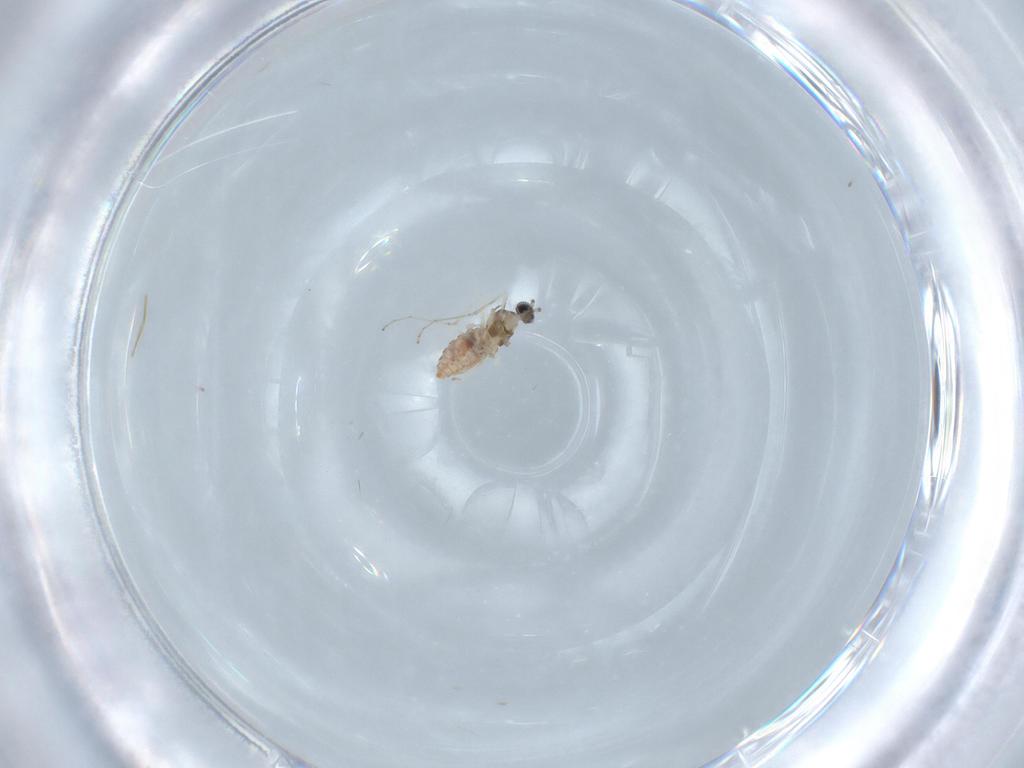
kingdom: Animalia
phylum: Arthropoda
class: Insecta
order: Diptera
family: Cecidomyiidae
